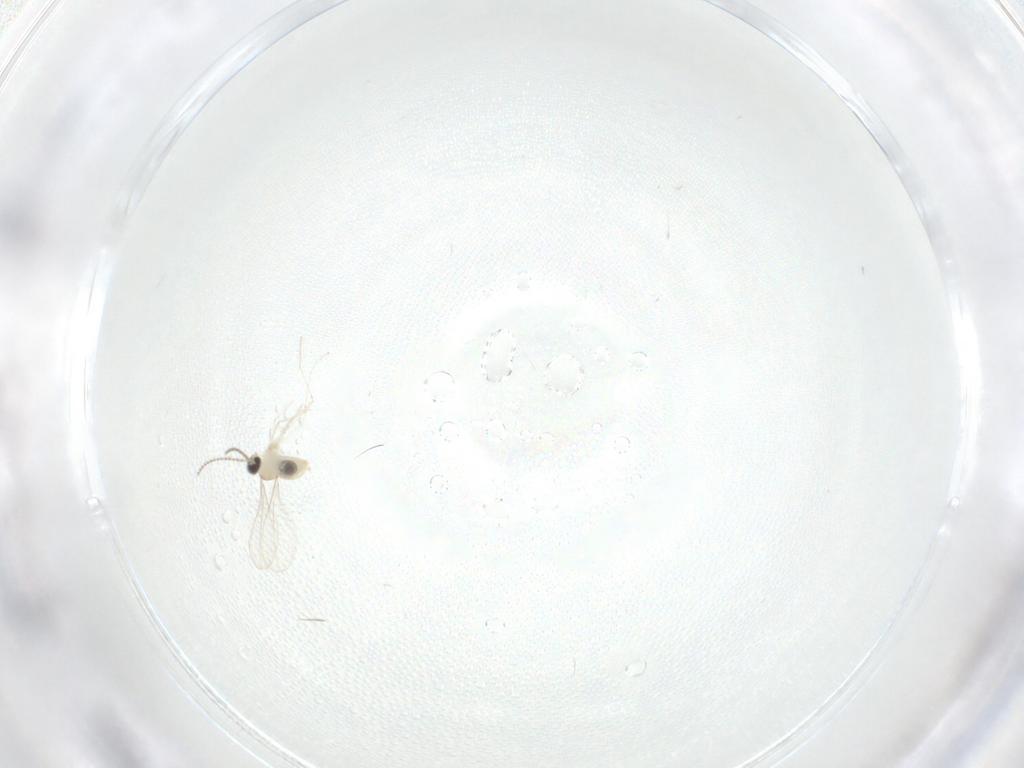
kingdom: Animalia
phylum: Arthropoda
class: Insecta
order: Diptera
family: Cecidomyiidae
